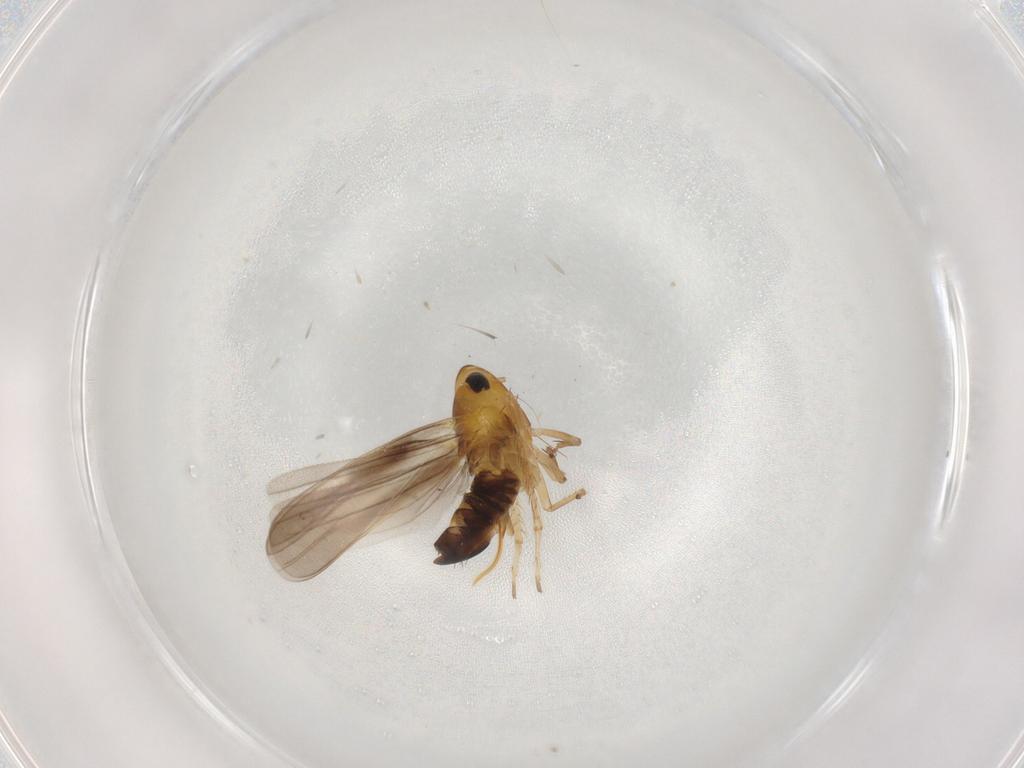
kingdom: Animalia
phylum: Arthropoda
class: Insecta
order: Hemiptera
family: Cicadellidae
